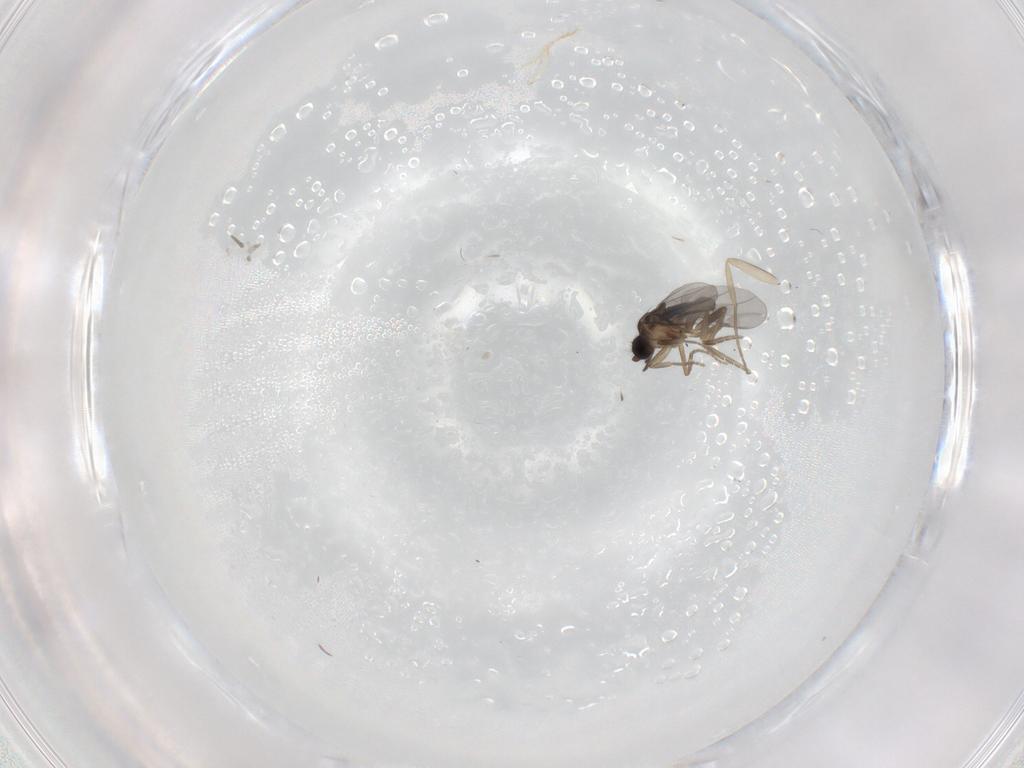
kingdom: Animalia
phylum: Arthropoda
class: Insecta
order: Diptera
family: Phoridae
